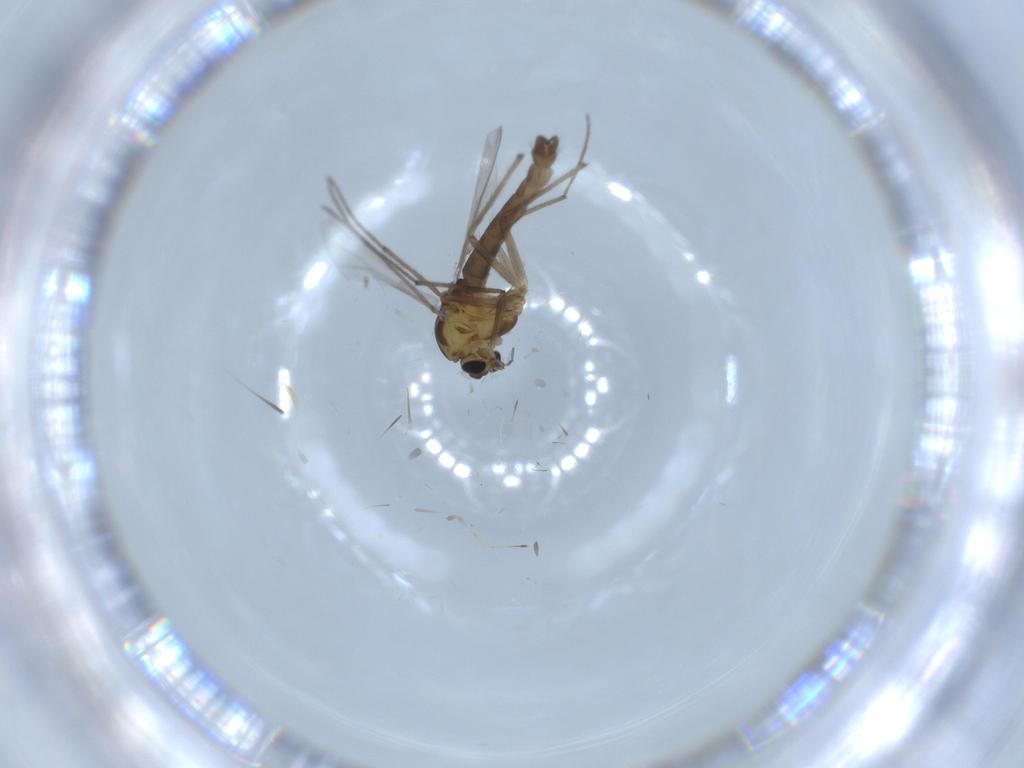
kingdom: Animalia
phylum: Arthropoda
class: Insecta
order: Diptera
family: Chironomidae
